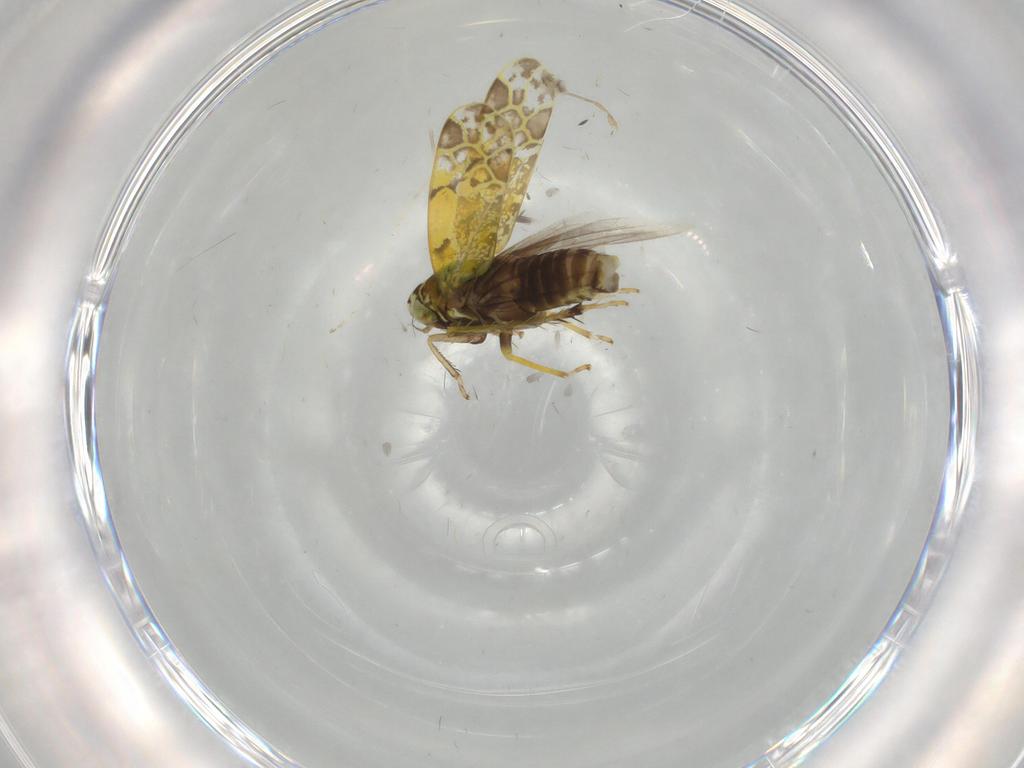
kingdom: Animalia
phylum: Arthropoda
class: Insecta
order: Hemiptera
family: Cicadellidae
